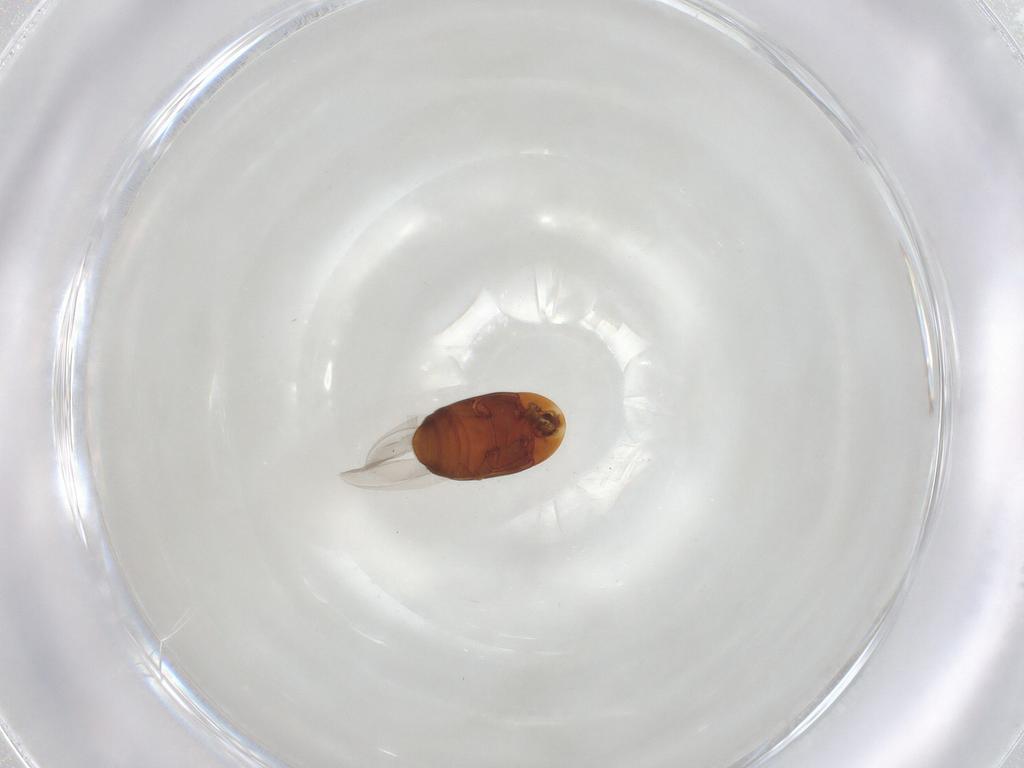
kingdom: Animalia
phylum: Arthropoda
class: Insecta
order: Coleoptera
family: Corylophidae
